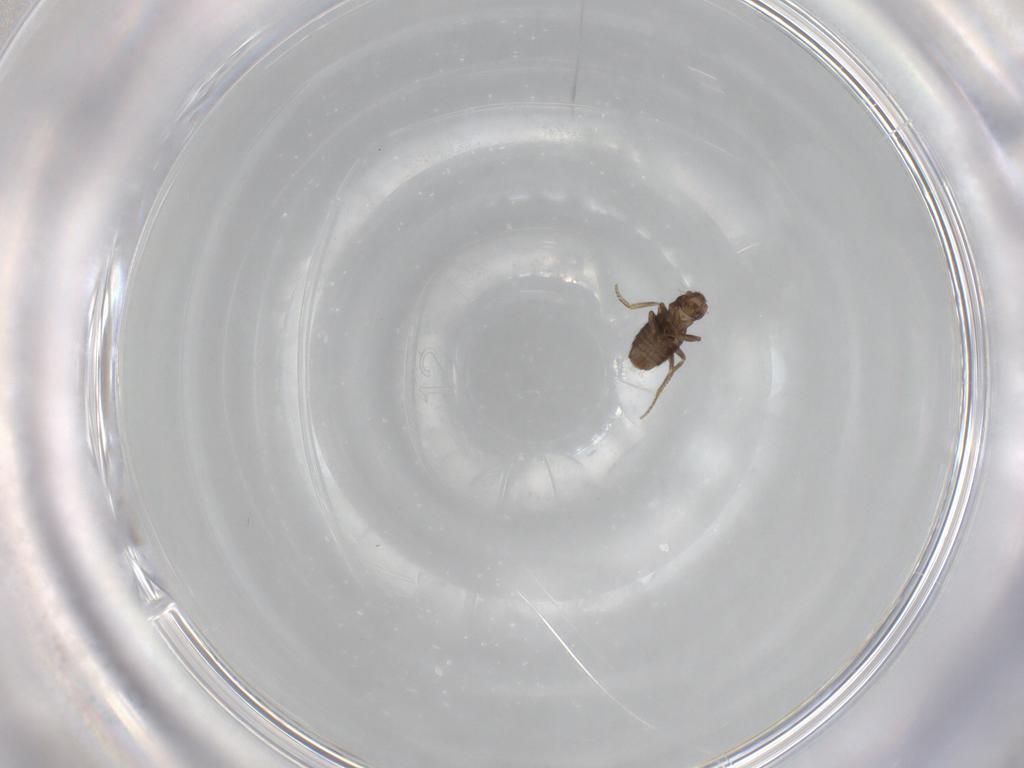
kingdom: Animalia
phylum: Arthropoda
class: Insecta
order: Diptera
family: Phoridae
